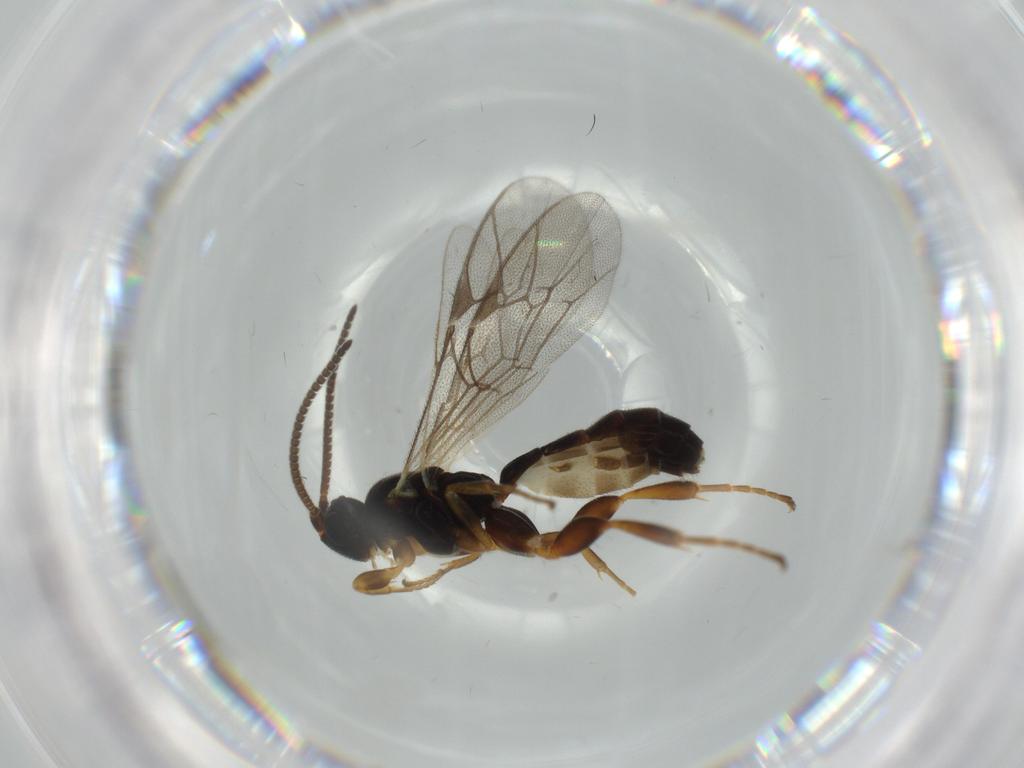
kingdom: Animalia
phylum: Arthropoda
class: Insecta
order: Hymenoptera
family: Ichneumonidae
